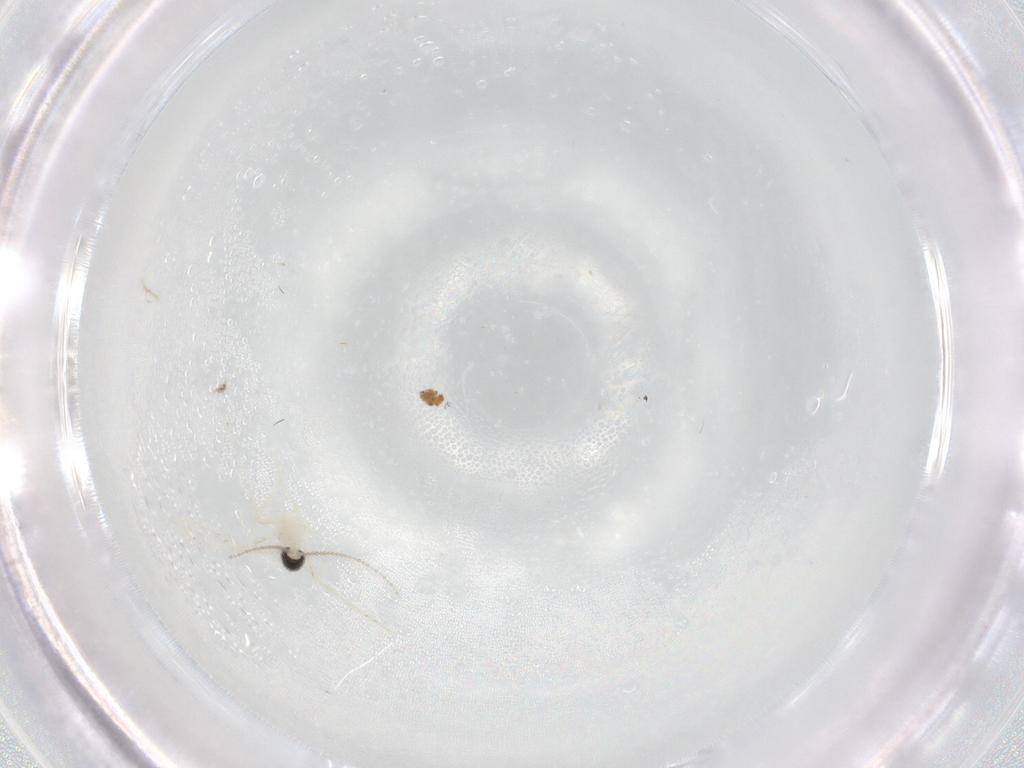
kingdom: Animalia
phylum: Arthropoda
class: Insecta
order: Diptera
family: Cecidomyiidae
